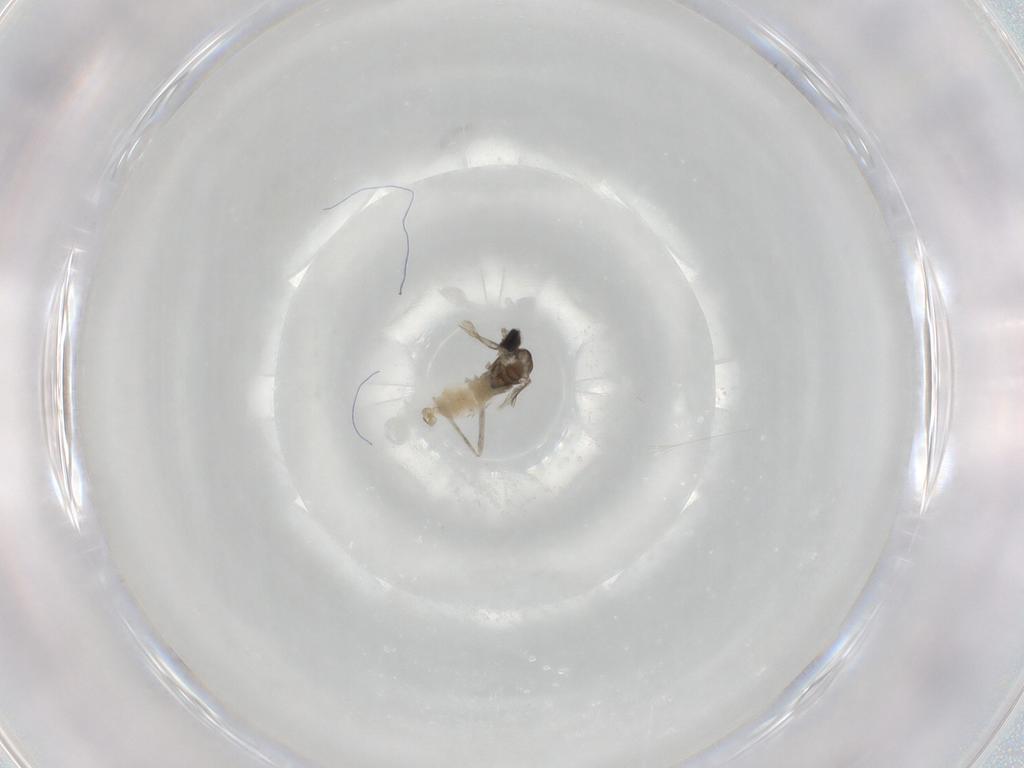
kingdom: Animalia
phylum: Arthropoda
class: Insecta
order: Diptera
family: Cecidomyiidae
